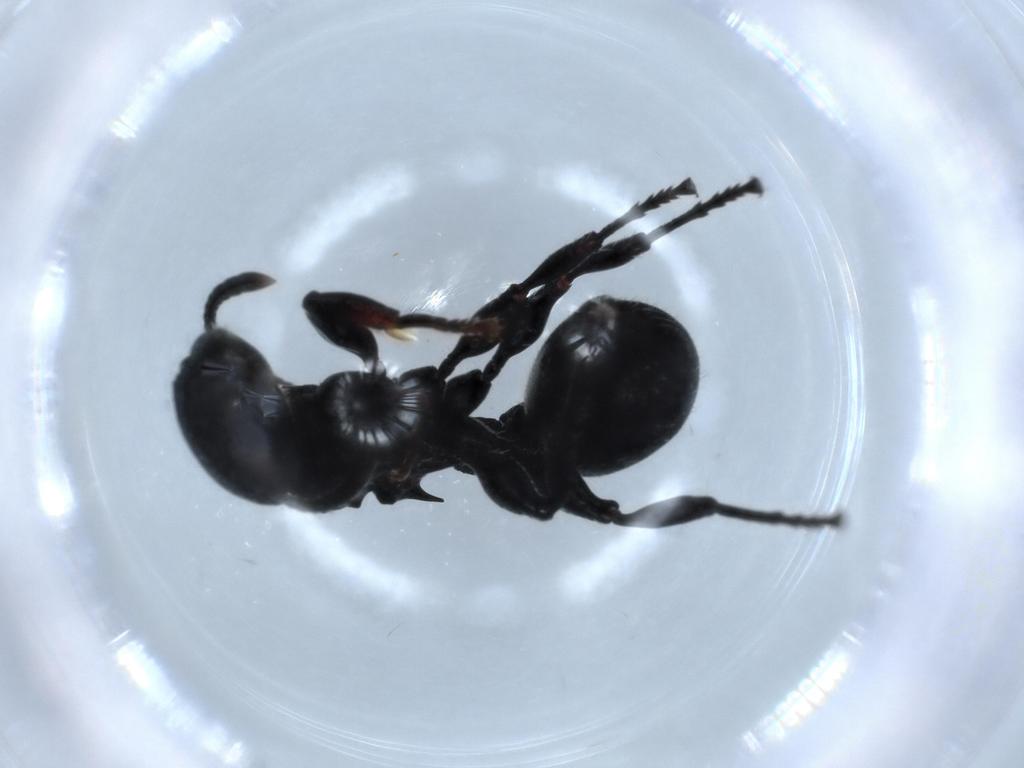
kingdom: Animalia
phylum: Arthropoda
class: Insecta
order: Hymenoptera
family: Formicidae
